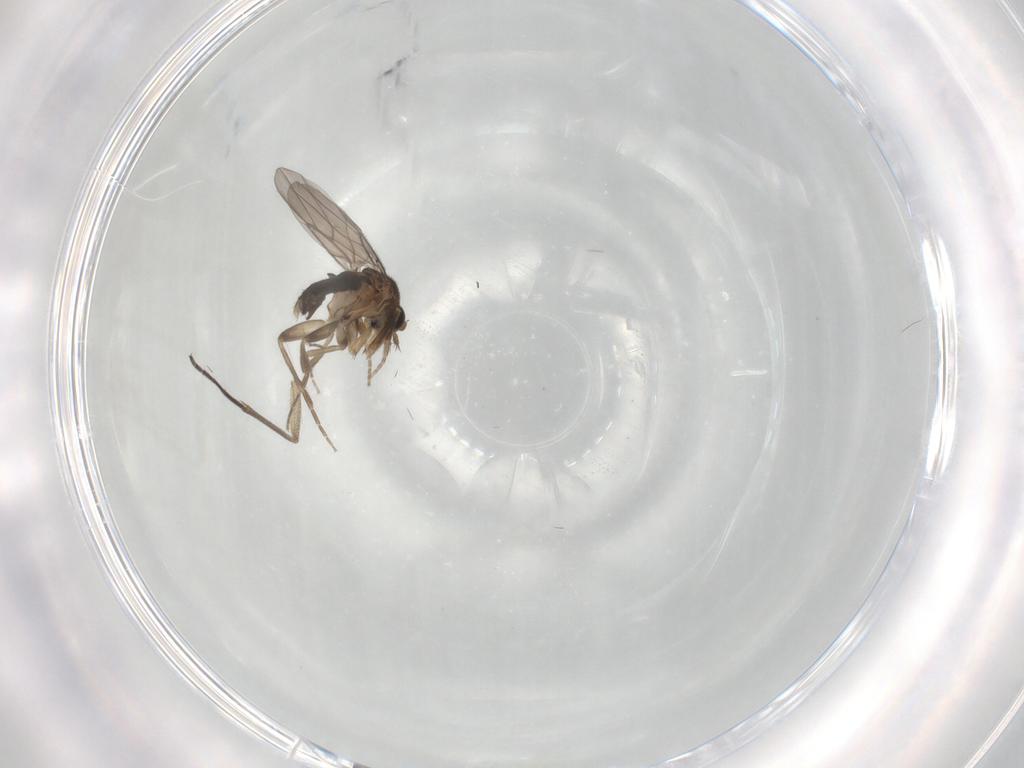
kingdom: Animalia
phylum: Arthropoda
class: Insecta
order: Diptera
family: Sciaridae
